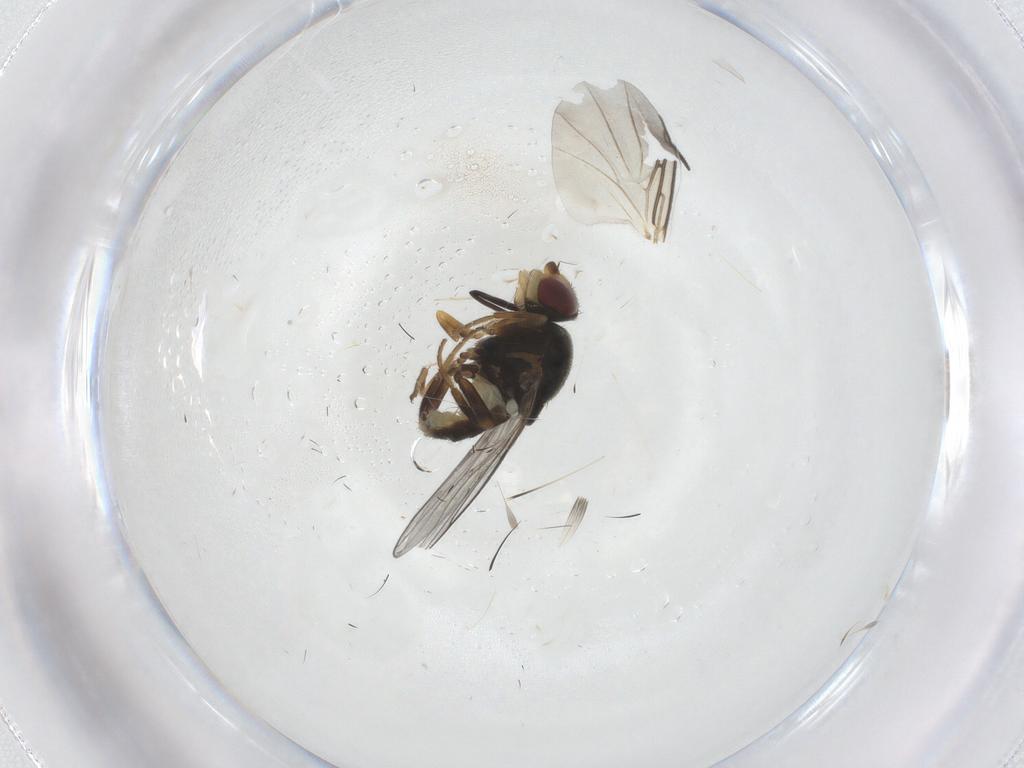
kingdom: Animalia
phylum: Arthropoda
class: Insecta
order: Diptera
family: Chloropidae
